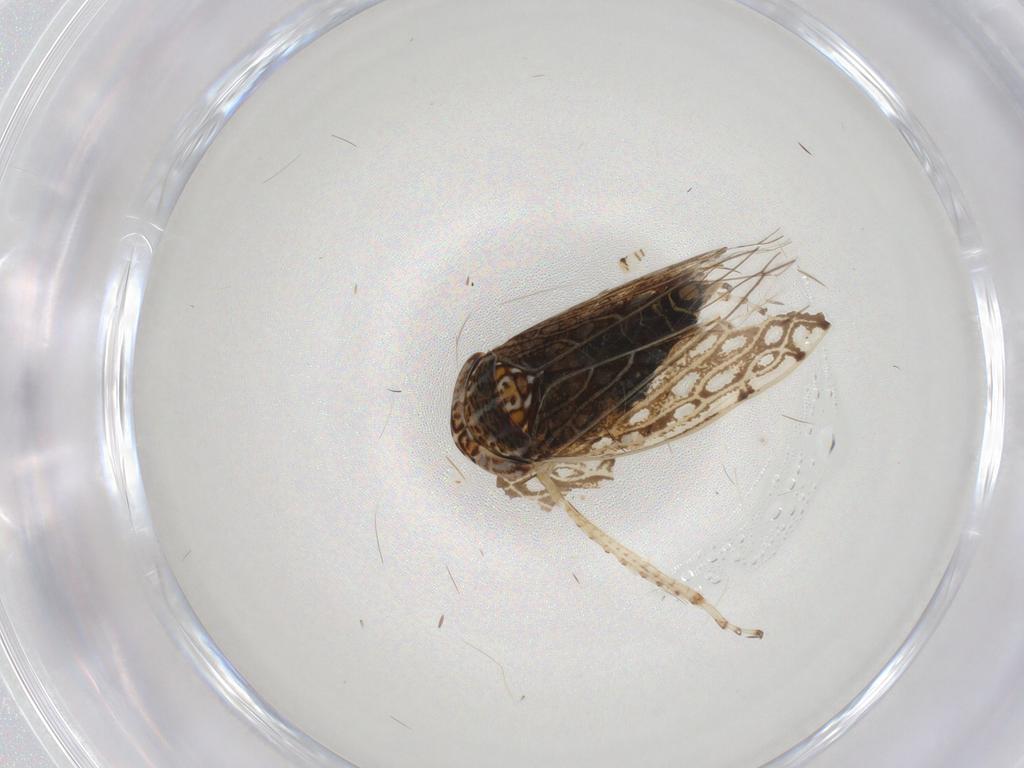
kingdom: Animalia
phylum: Arthropoda
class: Insecta
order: Hemiptera
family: Cicadellidae
